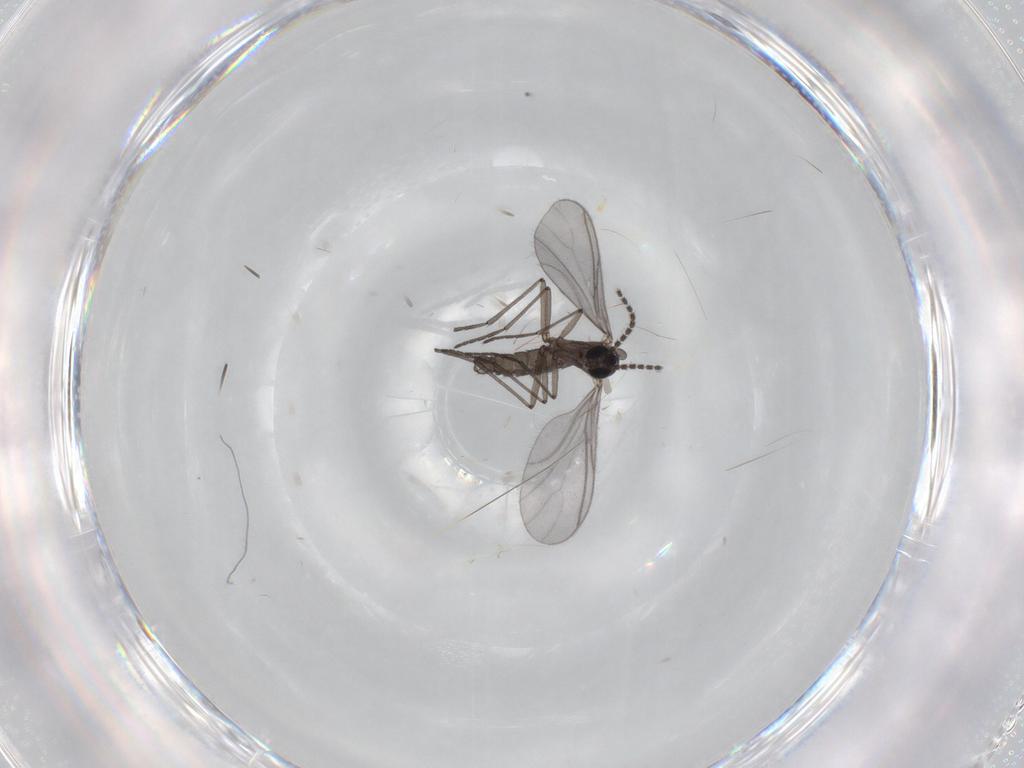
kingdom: Animalia
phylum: Arthropoda
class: Insecta
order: Diptera
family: Sciaridae
